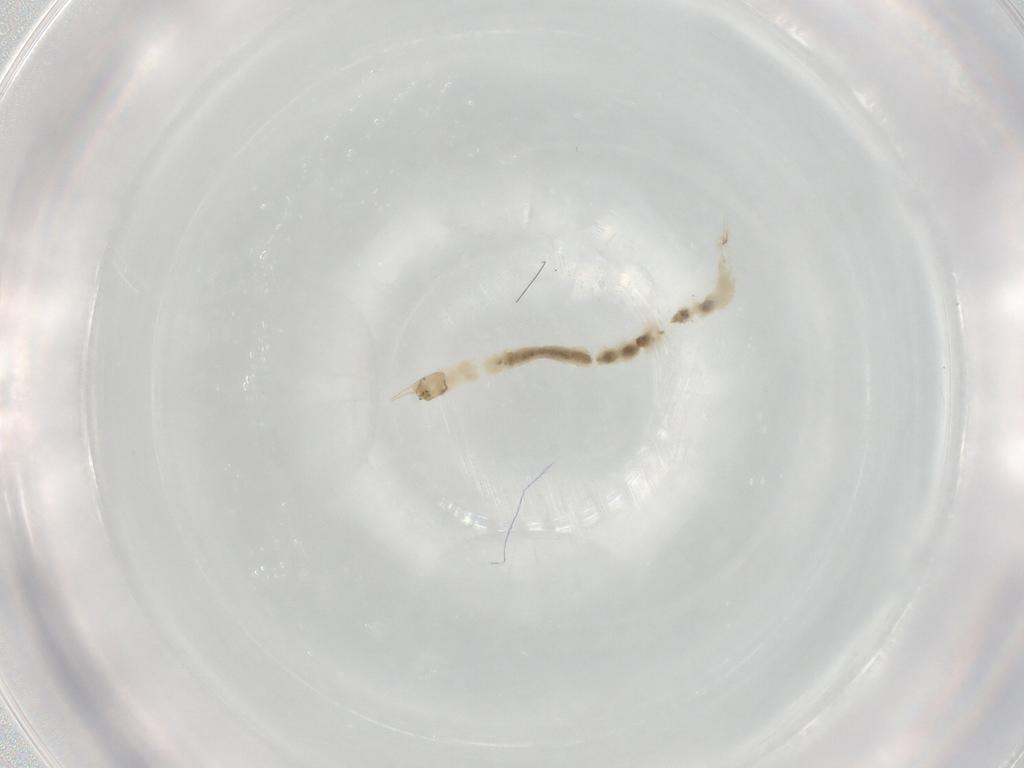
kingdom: Animalia
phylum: Arthropoda
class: Insecta
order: Diptera
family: Chironomidae
